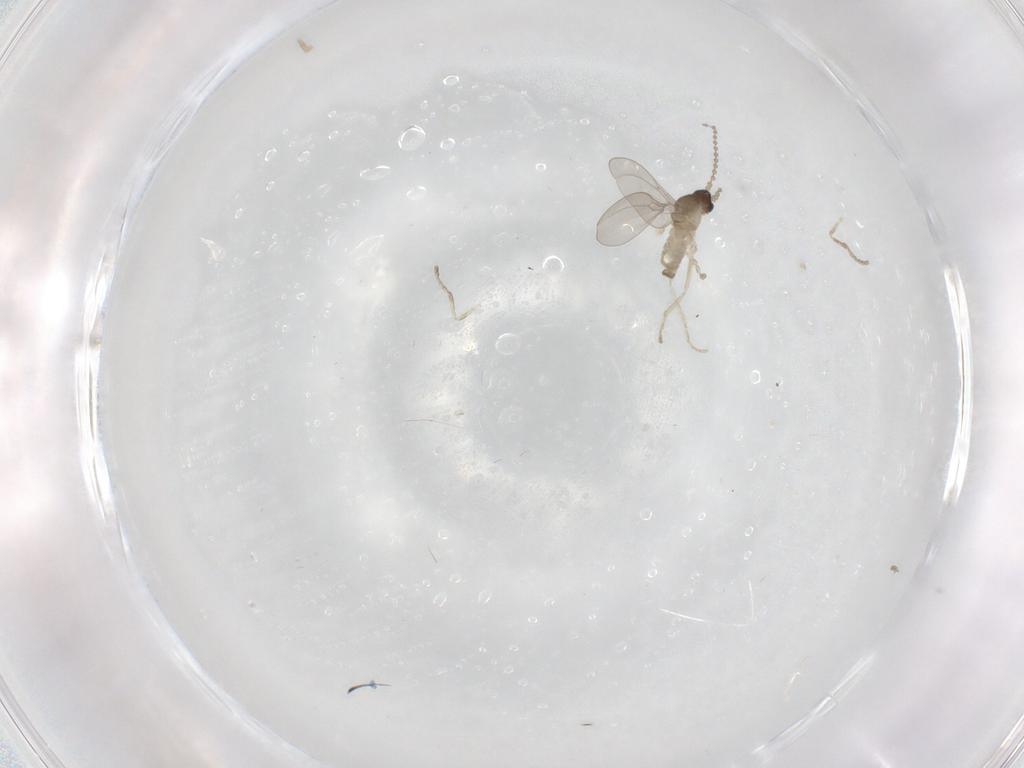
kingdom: Animalia
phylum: Arthropoda
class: Insecta
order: Diptera
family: Cecidomyiidae
